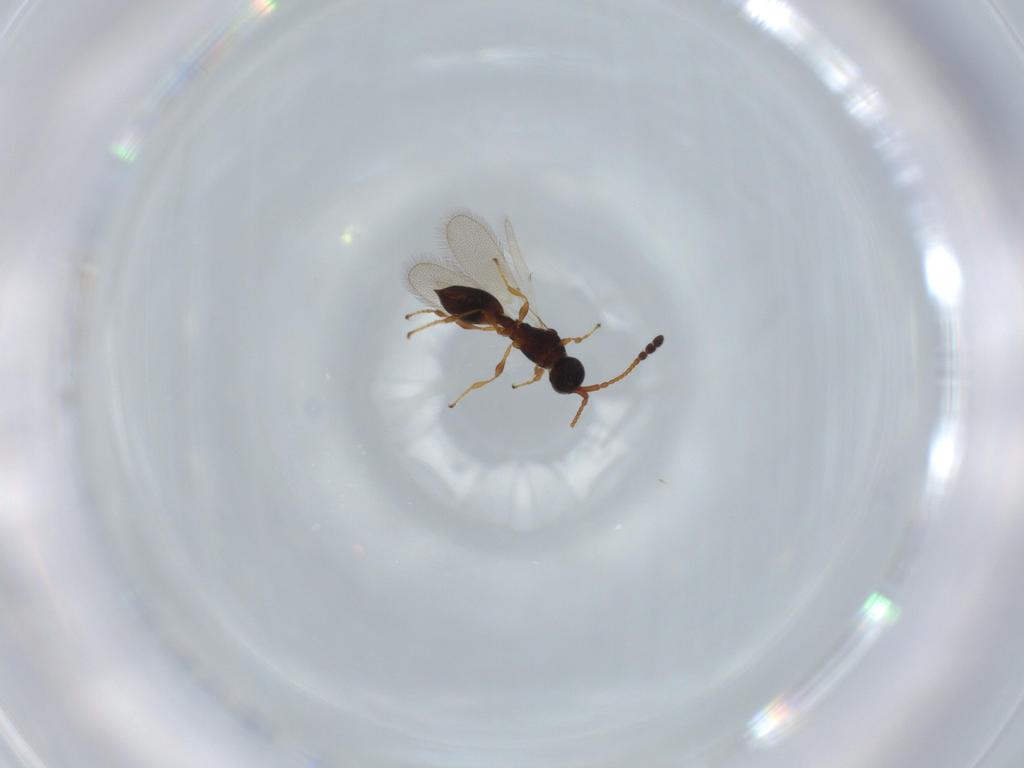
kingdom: Animalia
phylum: Arthropoda
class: Insecta
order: Hymenoptera
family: Diapriidae
